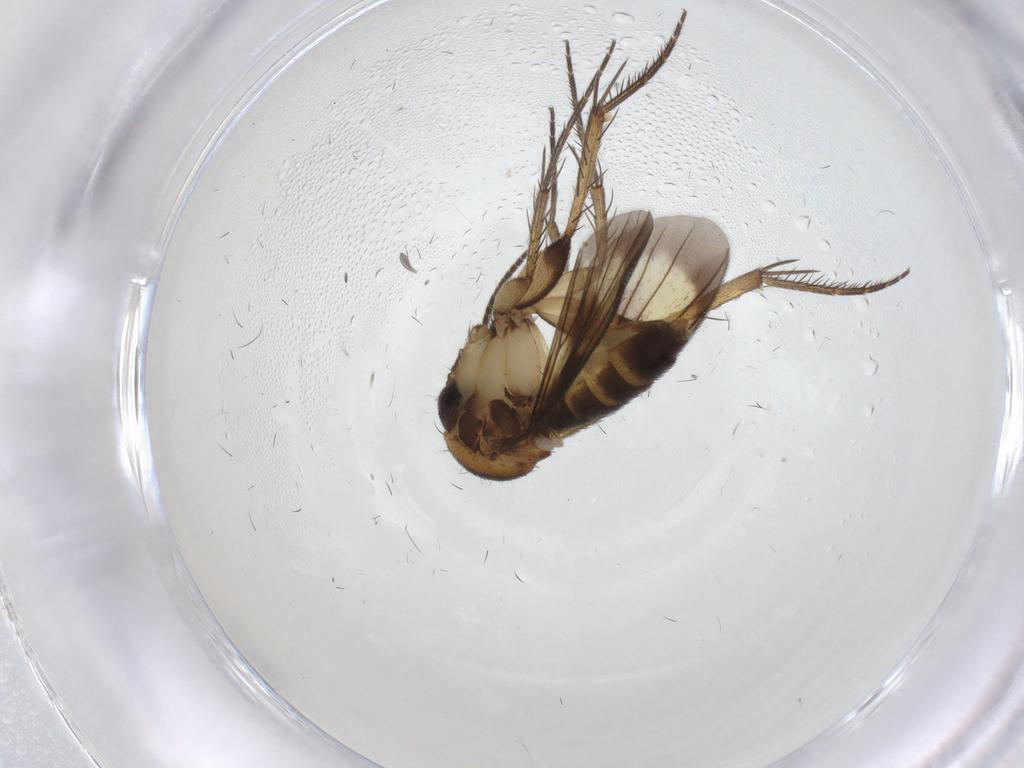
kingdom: Animalia
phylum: Arthropoda
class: Insecta
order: Diptera
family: Mycetophilidae
